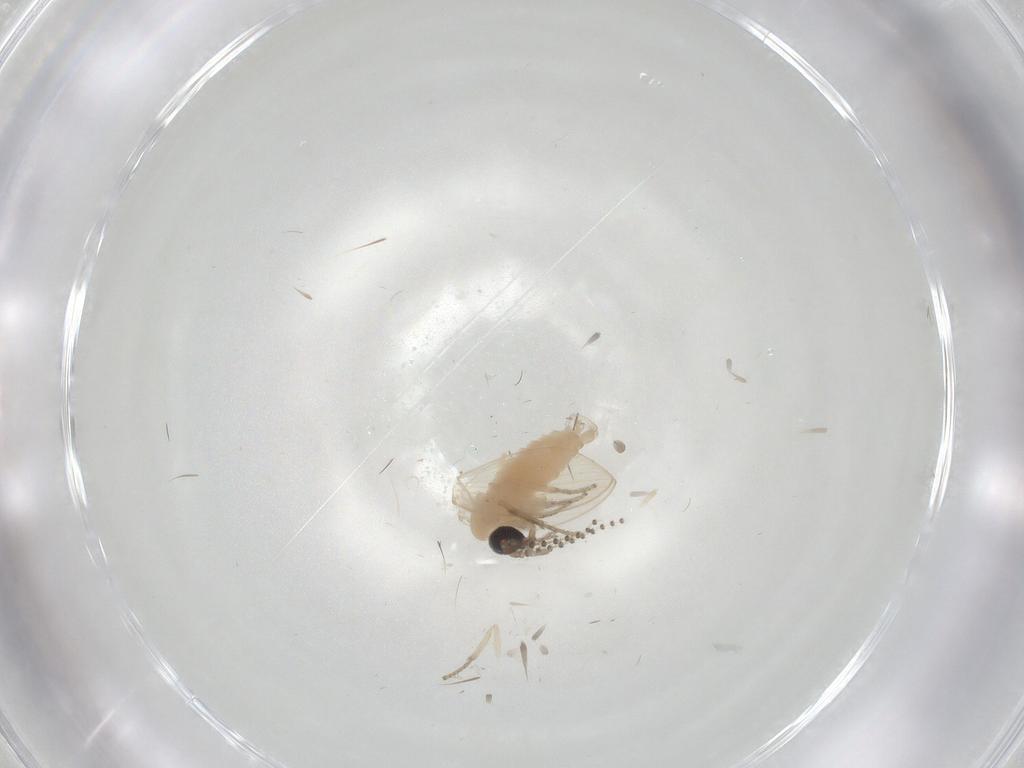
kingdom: Animalia
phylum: Arthropoda
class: Insecta
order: Diptera
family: Psychodidae
